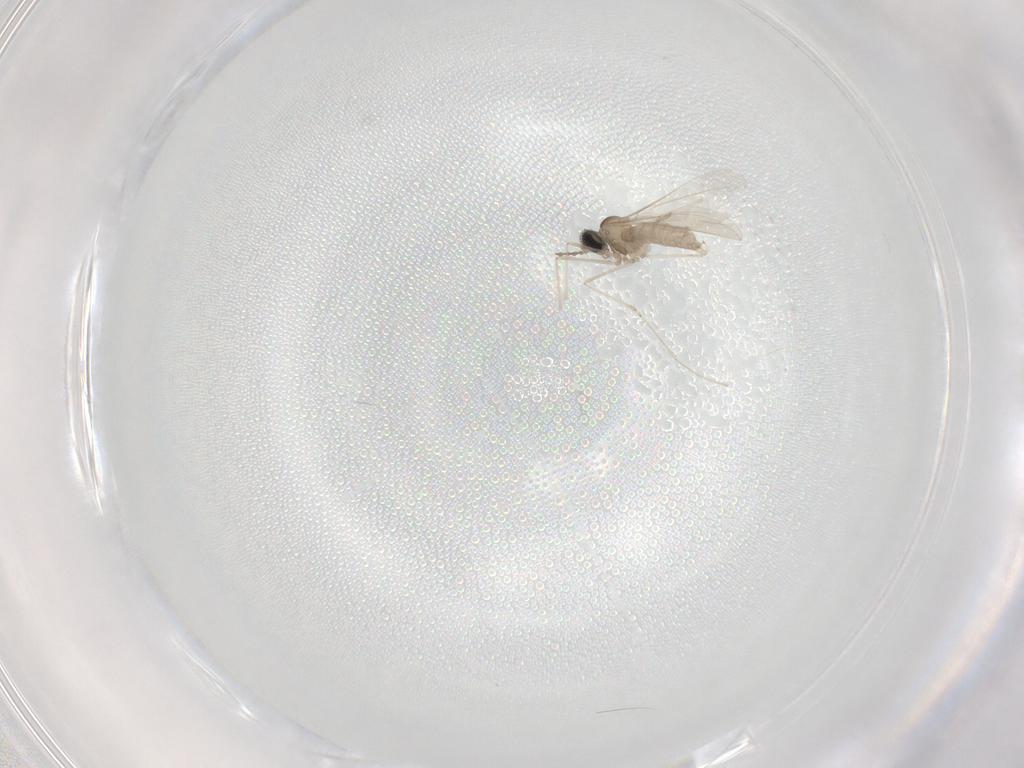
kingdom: Animalia
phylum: Arthropoda
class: Insecta
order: Diptera
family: Cecidomyiidae
